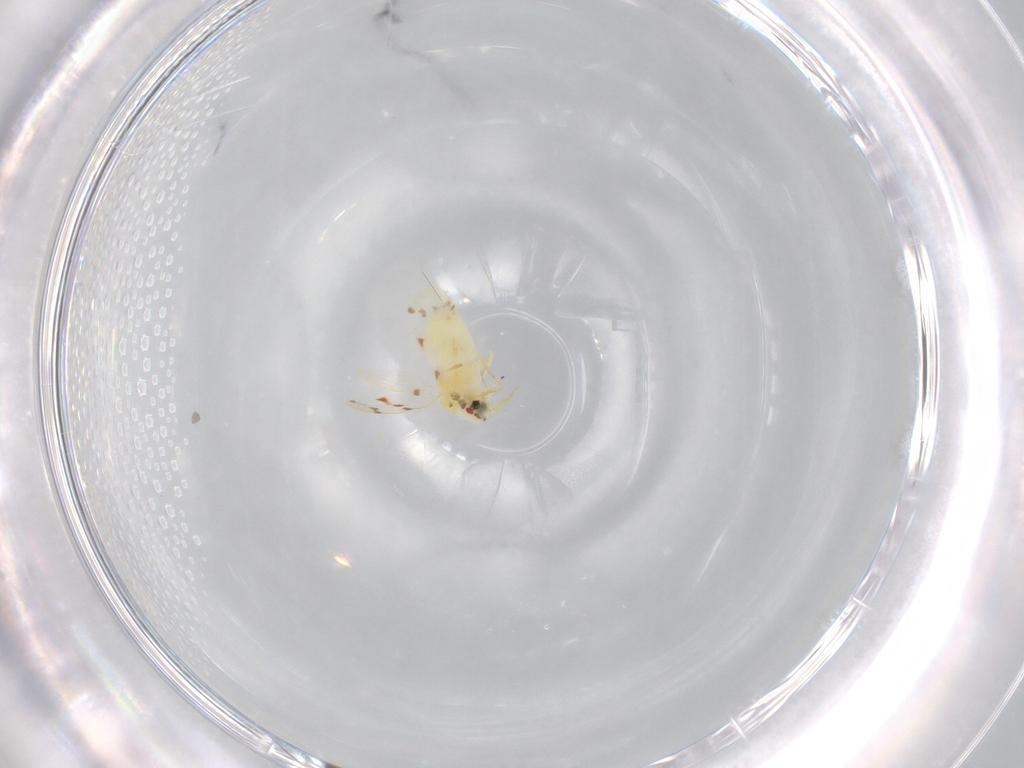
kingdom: Animalia
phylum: Arthropoda
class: Insecta
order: Hemiptera
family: Aleyrodidae
